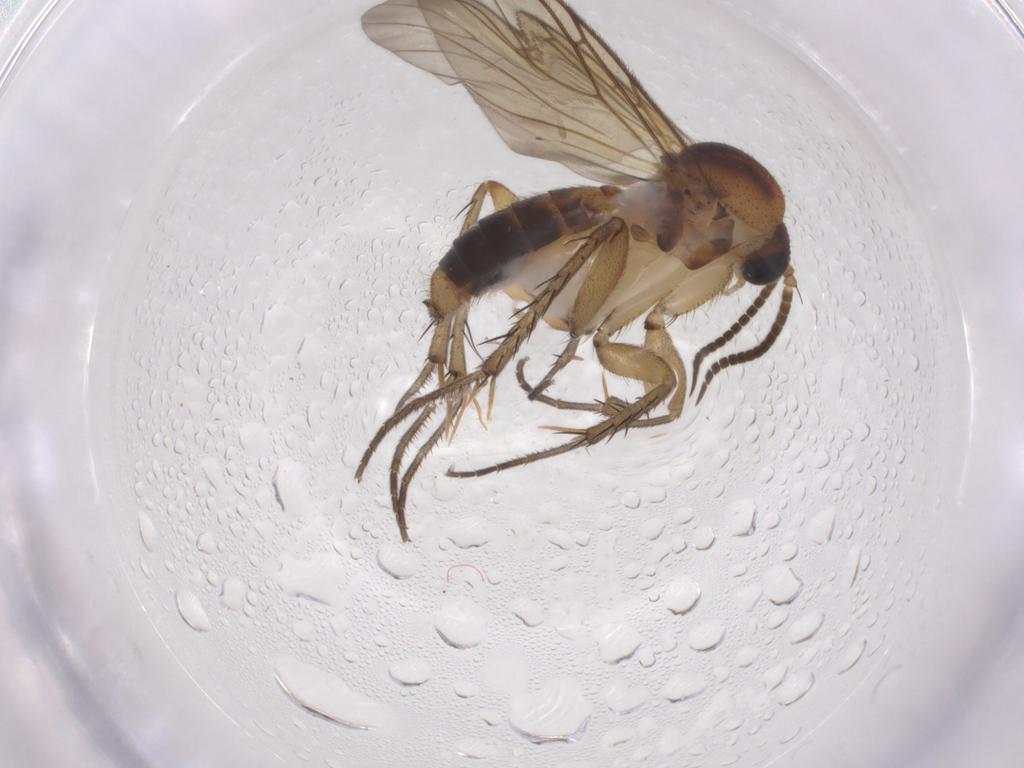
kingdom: Animalia
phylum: Arthropoda
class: Insecta
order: Diptera
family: Mycetophilidae
